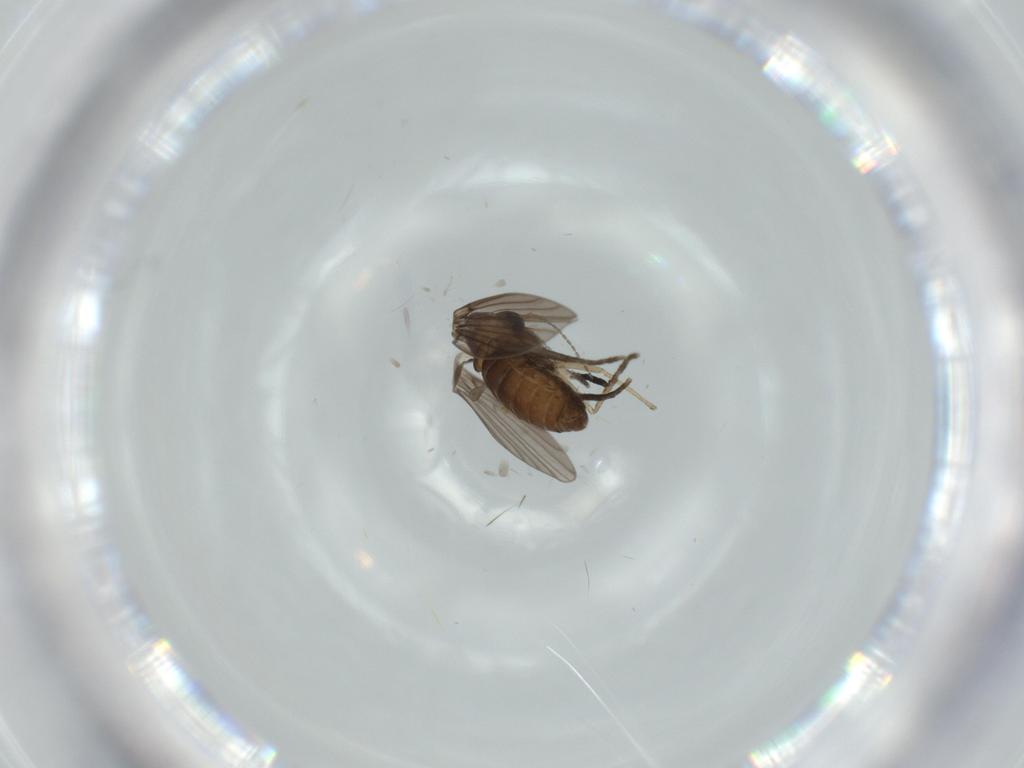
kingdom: Animalia
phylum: Arthropoda
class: Insecta
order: Diptera
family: Psychodidae
